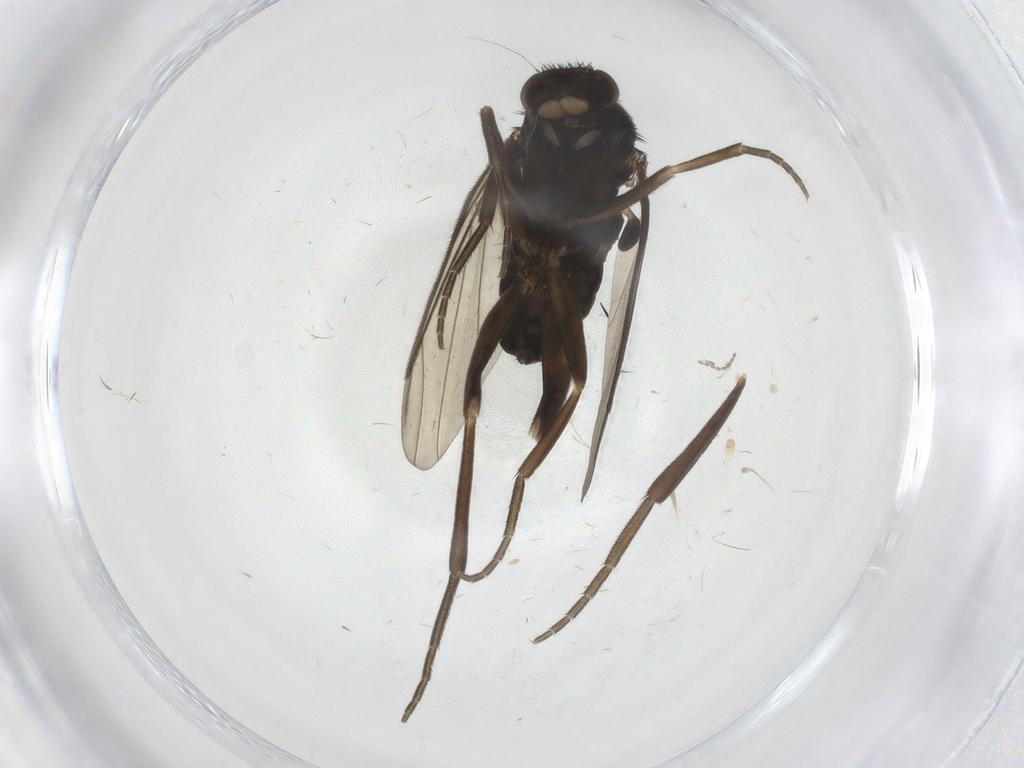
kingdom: Animalia
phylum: Arthropoda
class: Insecta
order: Diptera
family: Phoridae
